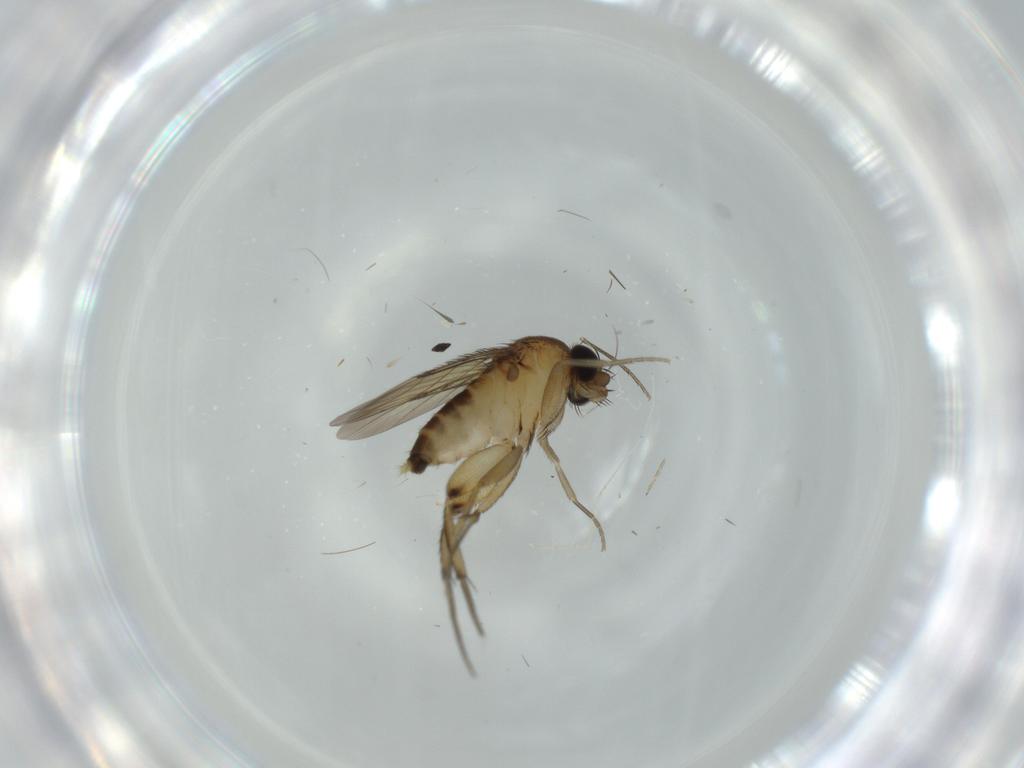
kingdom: Animalia
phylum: Arthropoda
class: Insecta
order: Diptera
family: Phoridae
